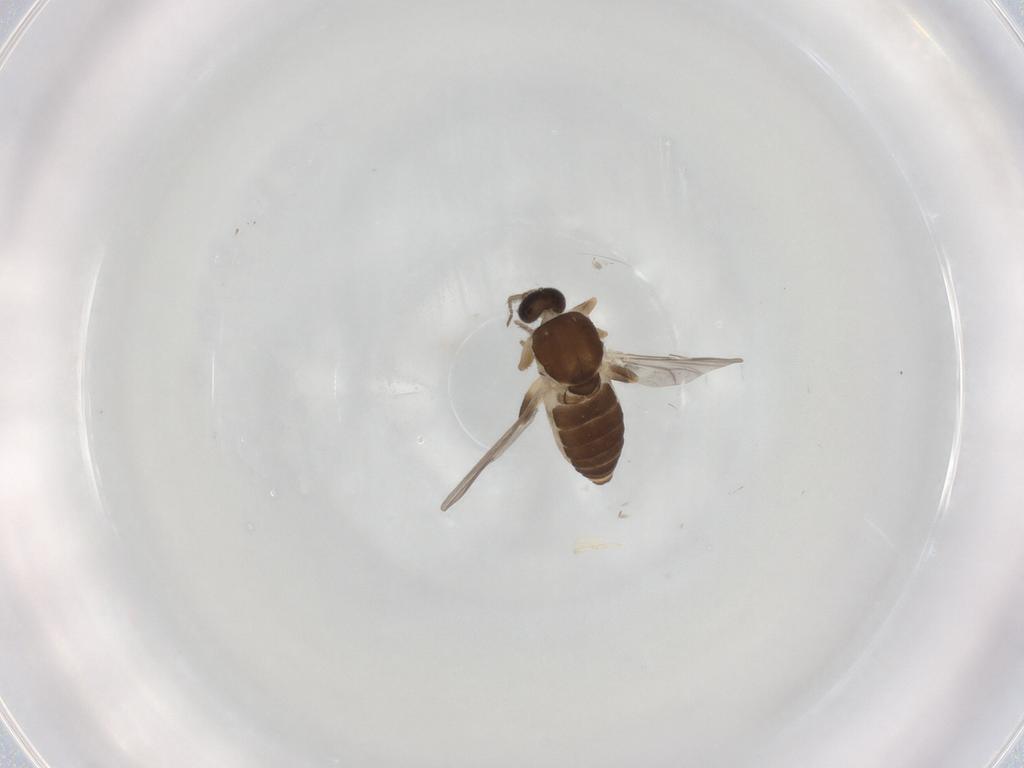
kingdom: Animalia
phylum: Arthropoda
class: Insecta
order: Diptera
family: Ceratopogonidae
